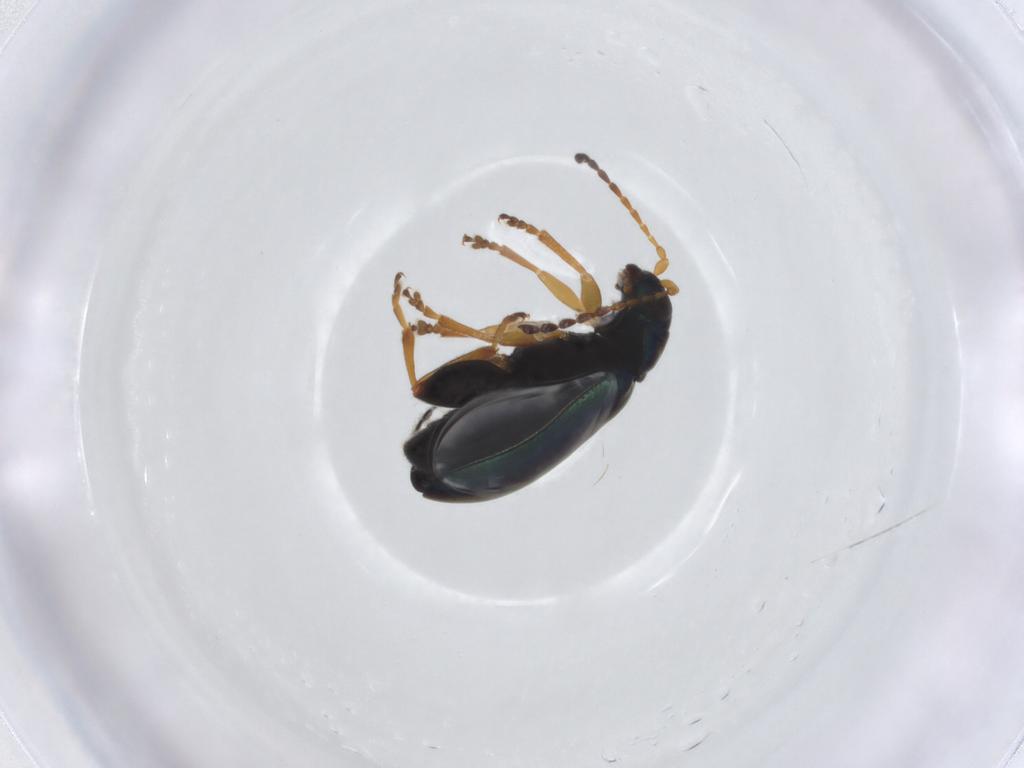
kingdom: Animalia
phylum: Arthropoda
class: Insecta
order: Coleoptera
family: Chrysomelidae
